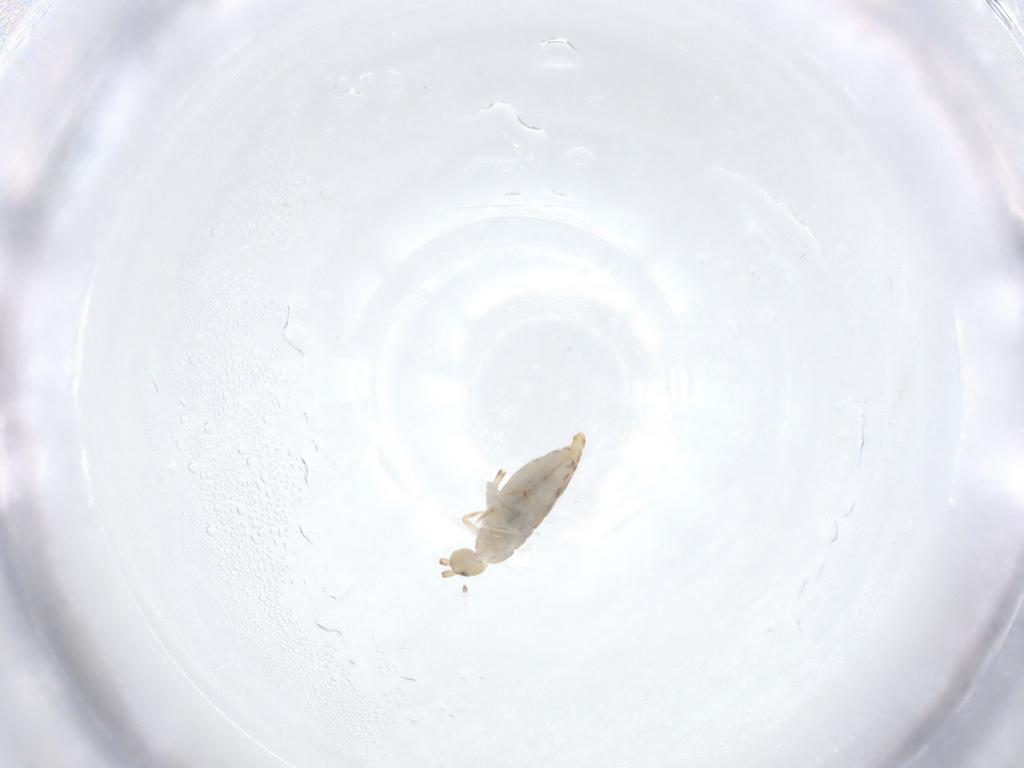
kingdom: Animalia
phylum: Arthropoda
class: Collembola
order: Entomobryomorpha
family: Entomobryidae
